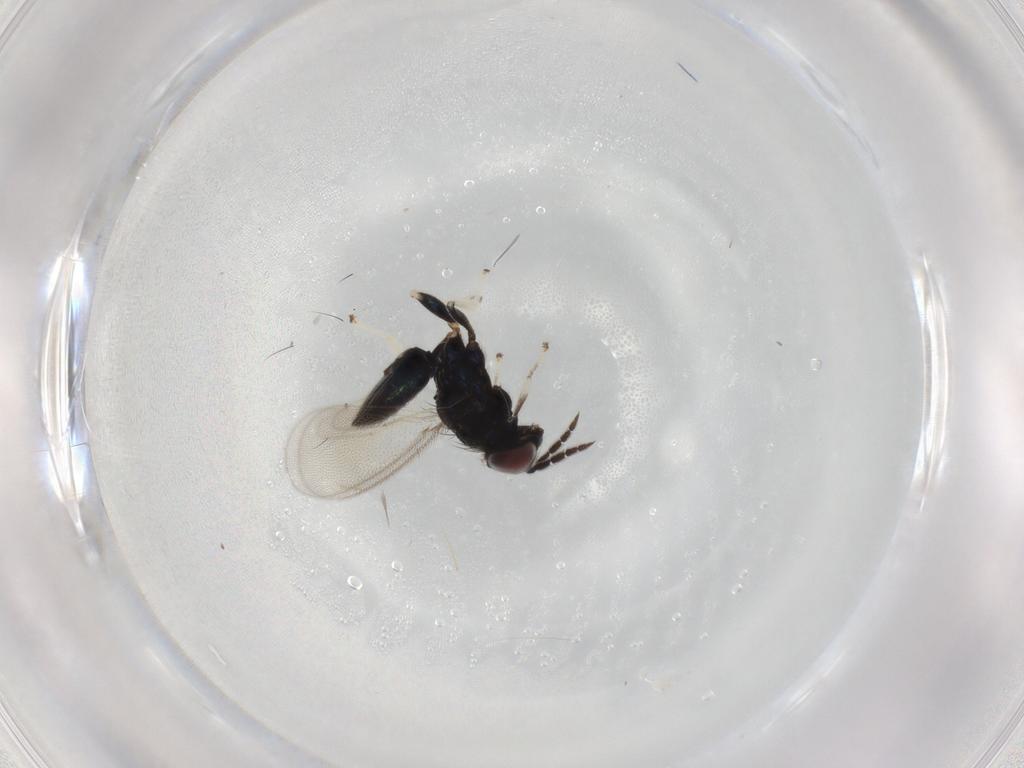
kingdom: Animalia
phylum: Arthropoda
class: Insecta
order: Hymenoptera
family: Eulophidae
